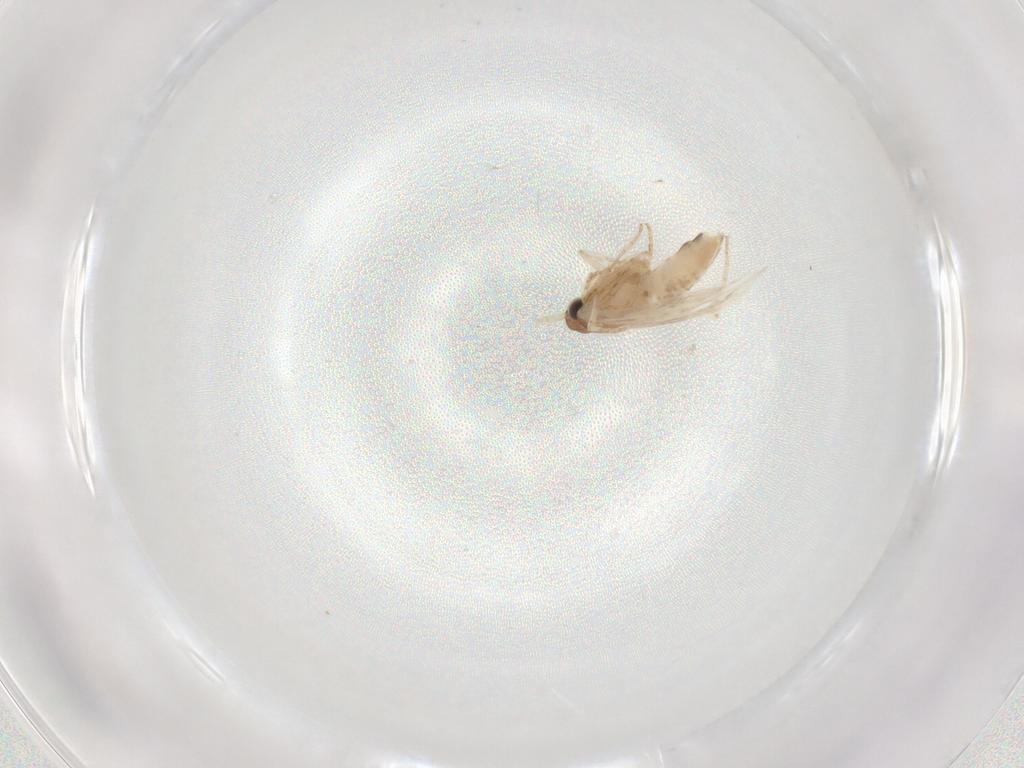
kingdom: Animalia
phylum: Arthropoda
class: Insecta
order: Lepidoptera
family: Cosmopterigidae
